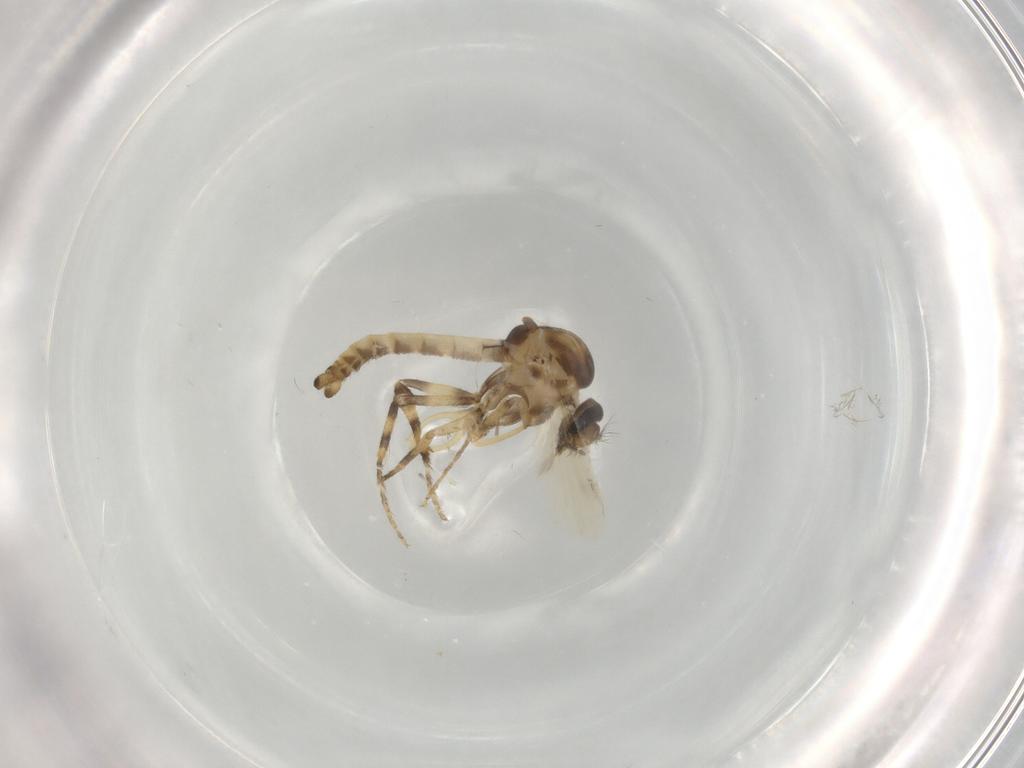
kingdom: Animalia
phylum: Arthropoda
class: Insecta
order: Diptera
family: Ceratopogonidae
